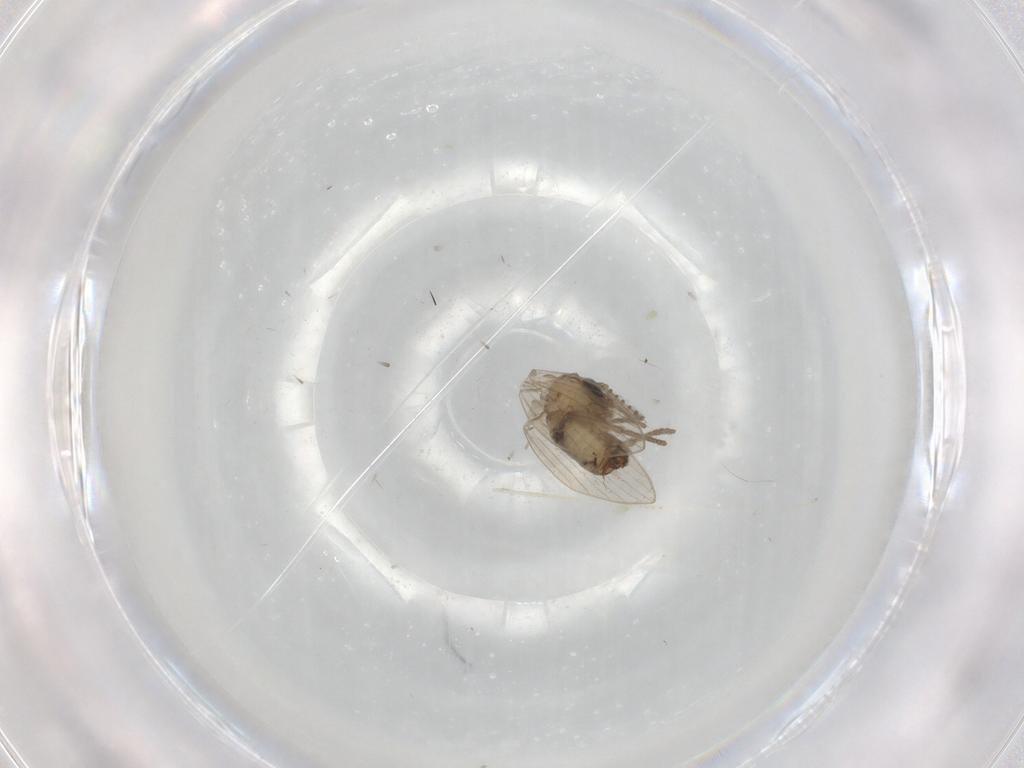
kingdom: Animalia
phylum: Arthropoda
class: Insecta
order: Diptera
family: Psychodidae
